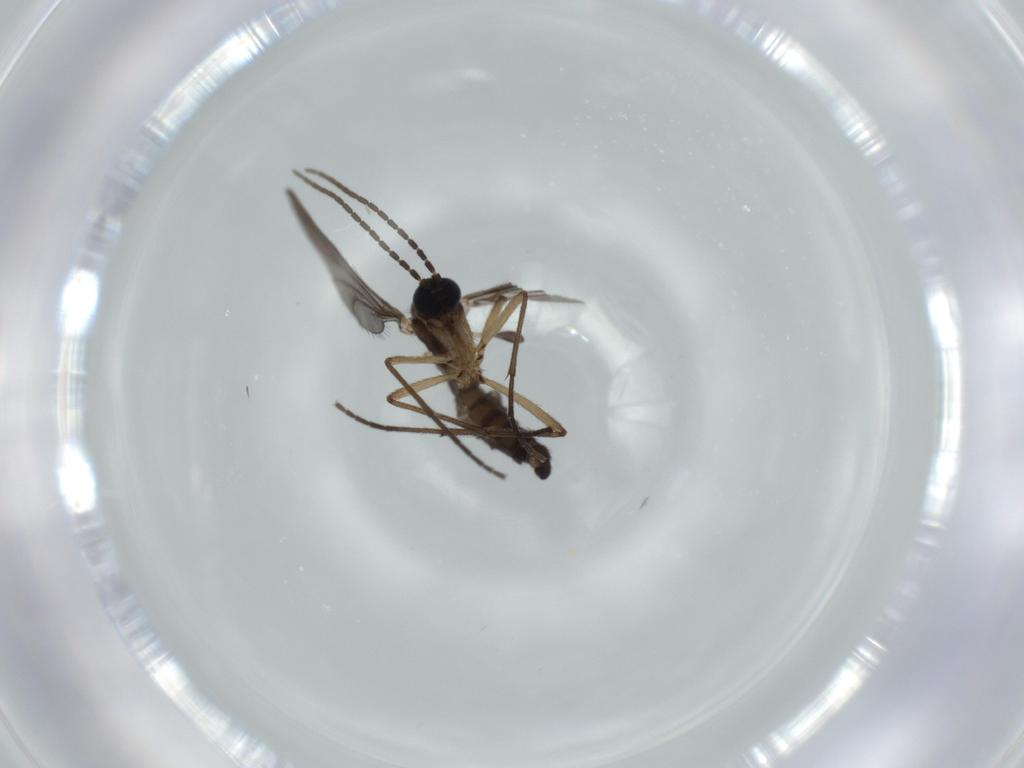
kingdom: Animalia
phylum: Arthropoda
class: Insecta
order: Diptera
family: Sciaridae
